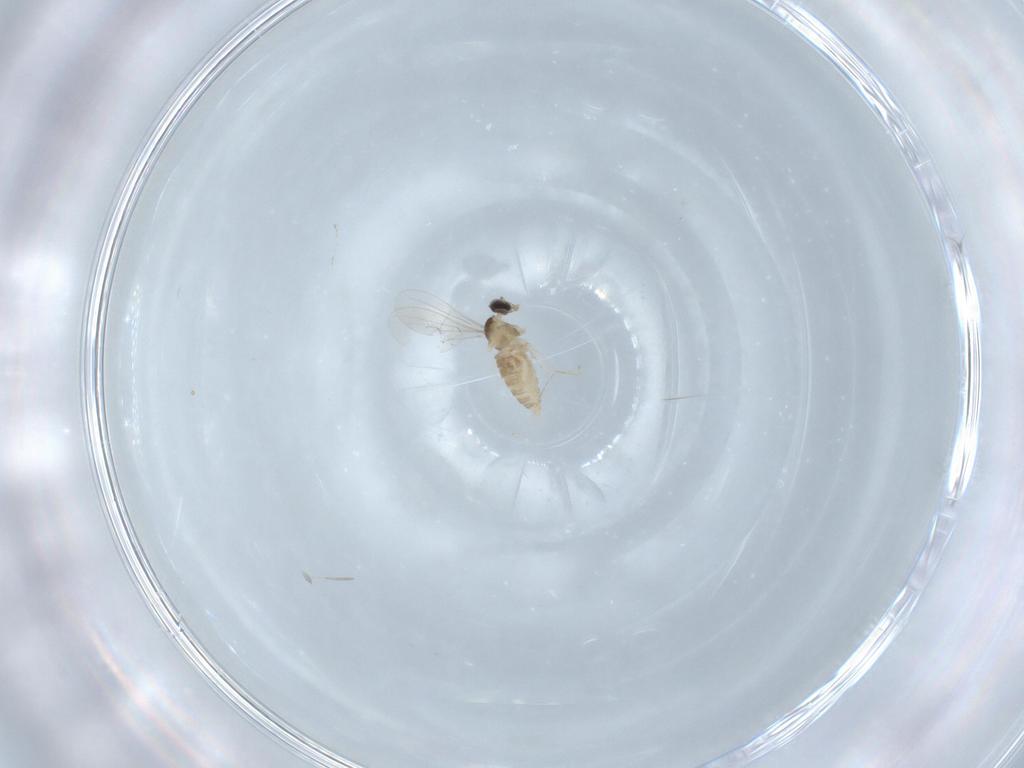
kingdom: Animalia
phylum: Arthropoda
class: Insecta
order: Diptera
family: Cecidomyiidae
